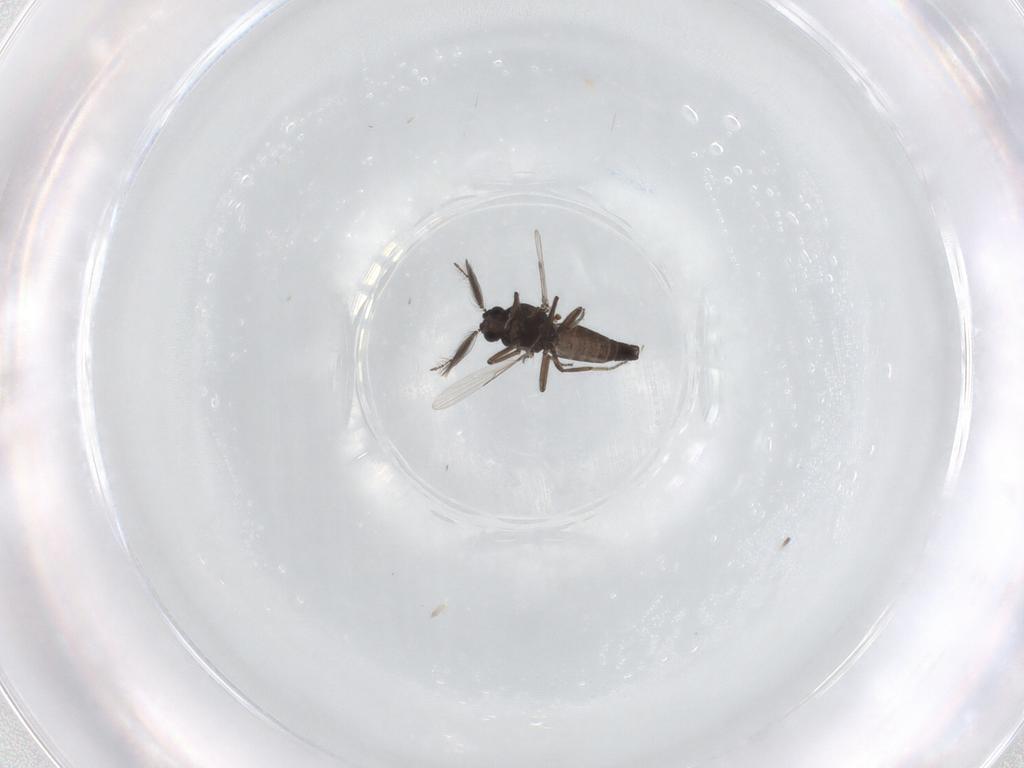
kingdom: Animalia
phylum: Arthropoda
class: Insecta
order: Diptera
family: Ceratopogonidae
